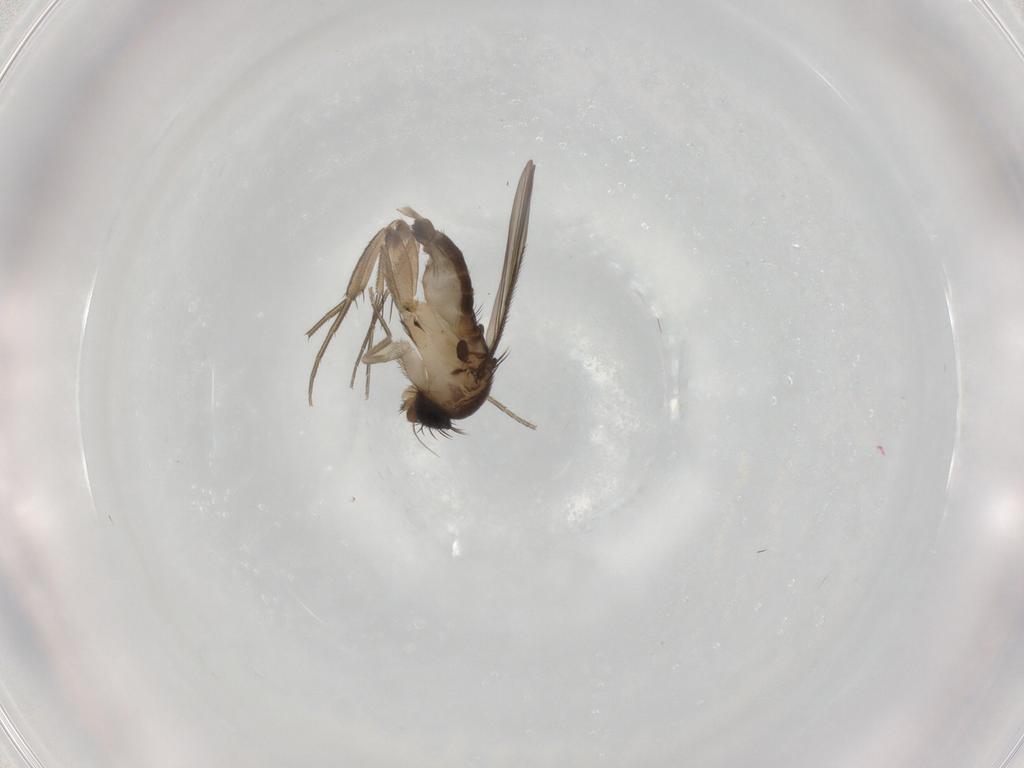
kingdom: Animalia
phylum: Arthropoda
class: Insecta
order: Diptera
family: Phoridae
